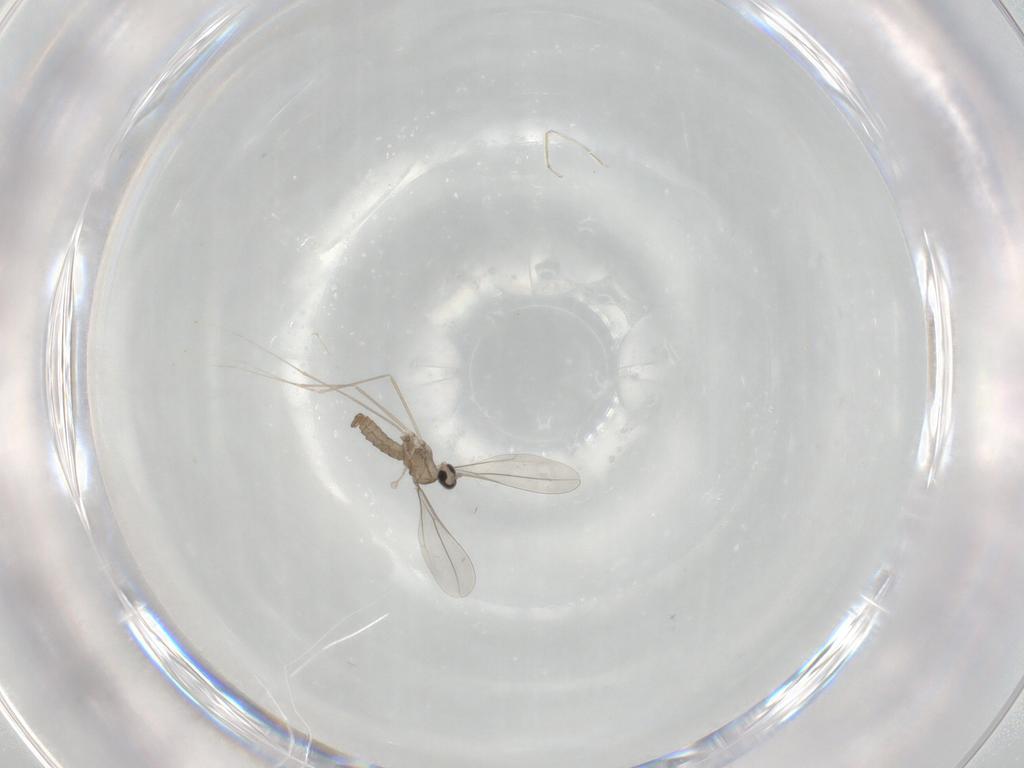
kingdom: Animalia
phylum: Arthropoda
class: Insecta
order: Diptera
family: Cecidomyiidae
